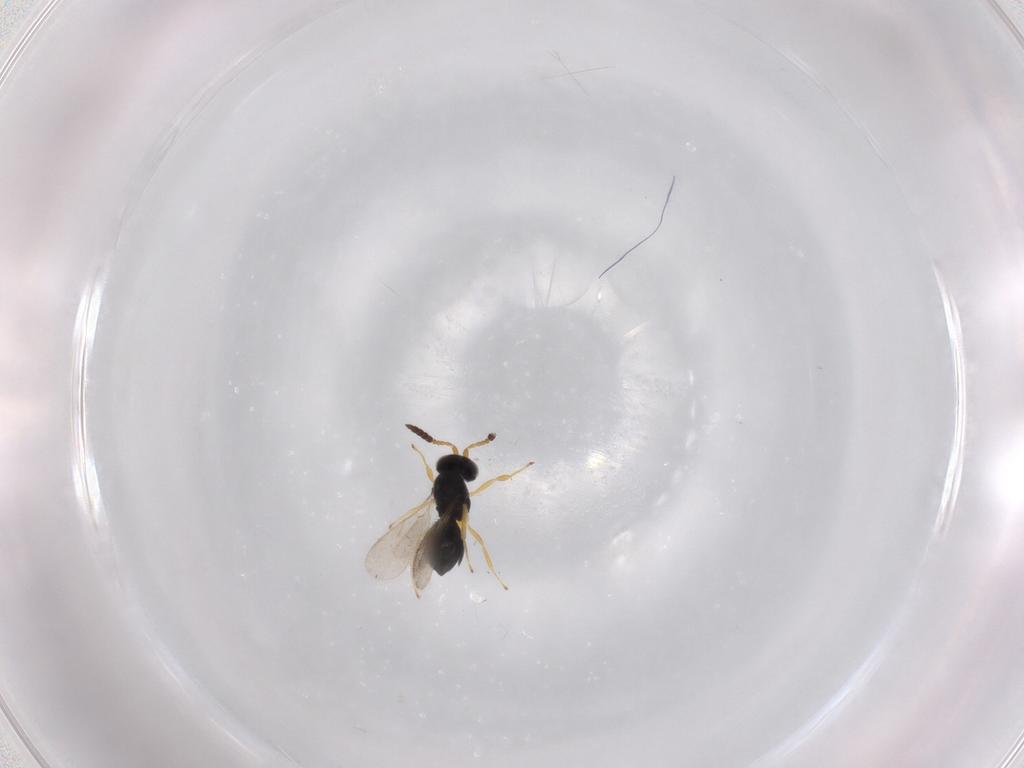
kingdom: Animalia
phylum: Arthropoda
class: Insecta
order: Hymenoptera
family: Scelionidae
